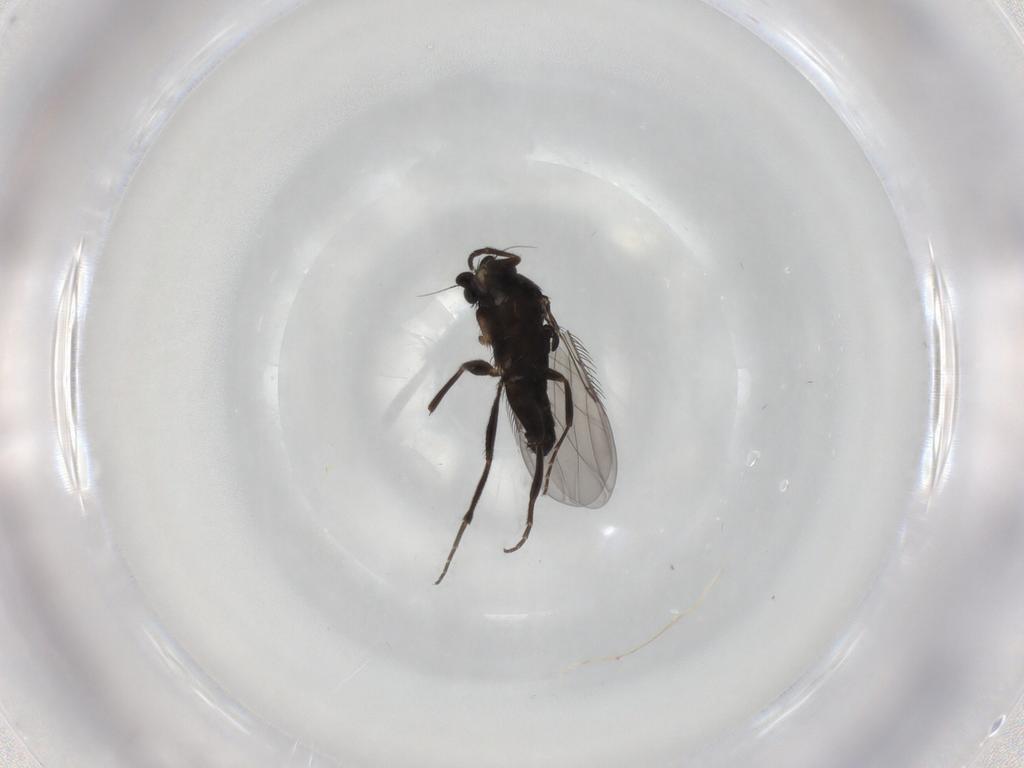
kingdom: Animalia
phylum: Arthropoda
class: Insecta
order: Diptera
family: Phoridae
